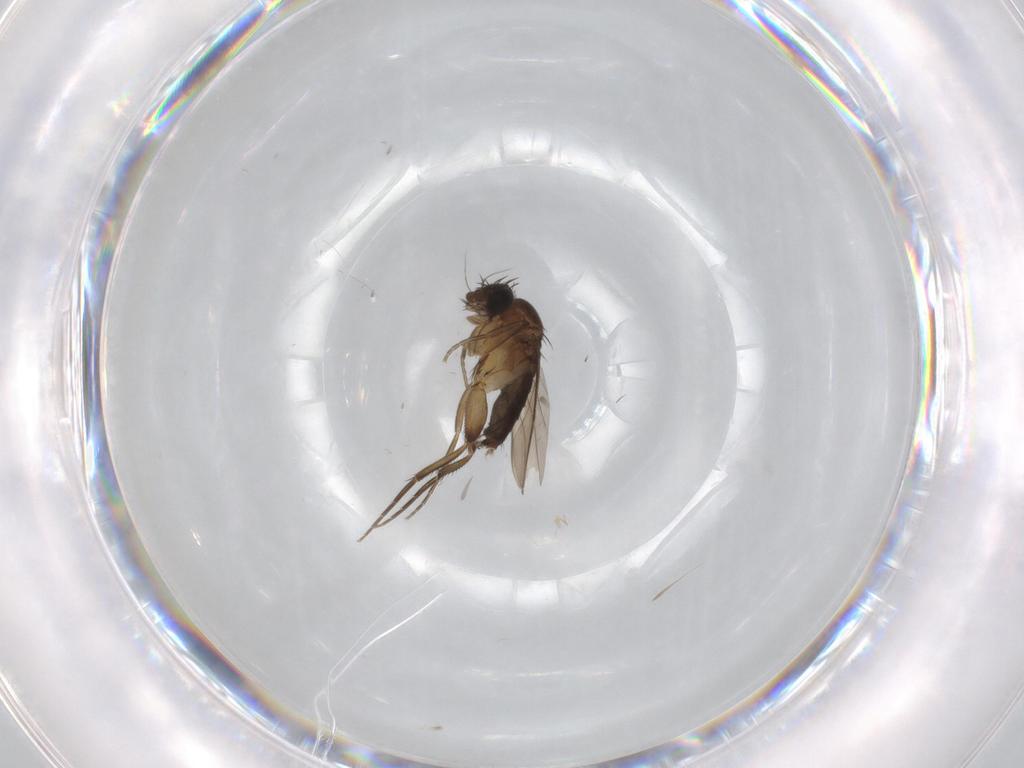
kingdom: Animalia
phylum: Arthropoda
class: Insecta
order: Diptera
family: Phoridae
